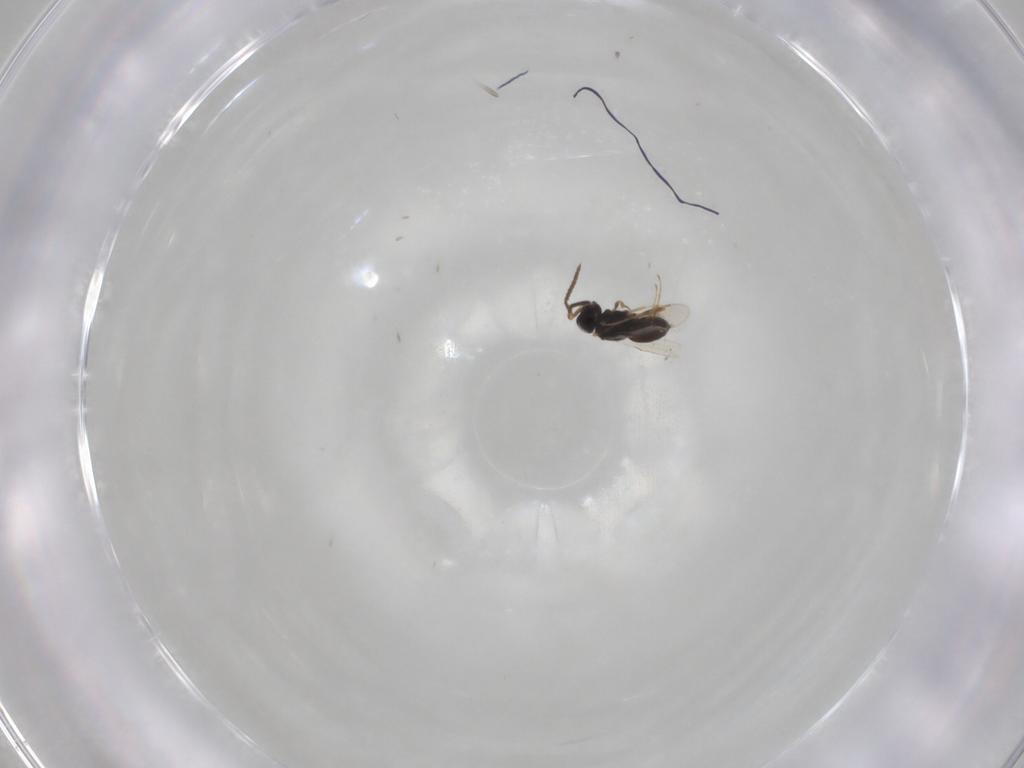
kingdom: Animalia
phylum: Arthropoda
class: Insecta
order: Hymenoptera
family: Scelionidae
